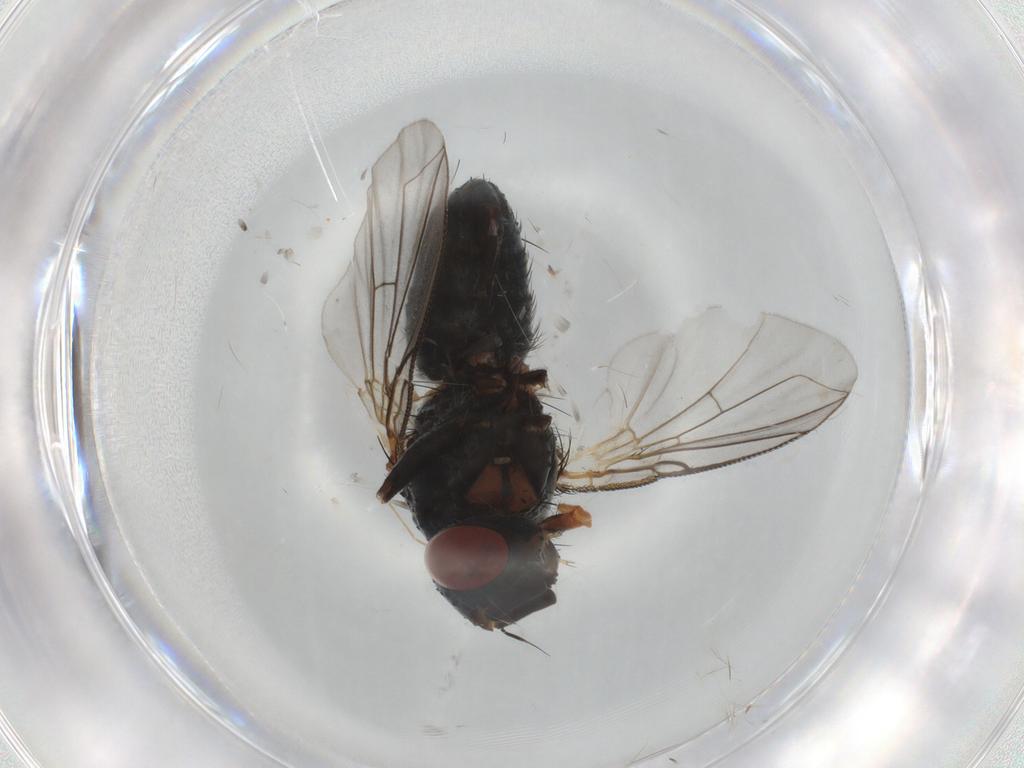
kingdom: Animalia
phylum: Arthropoda
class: Insecta
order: Diptera
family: Tachinidae
